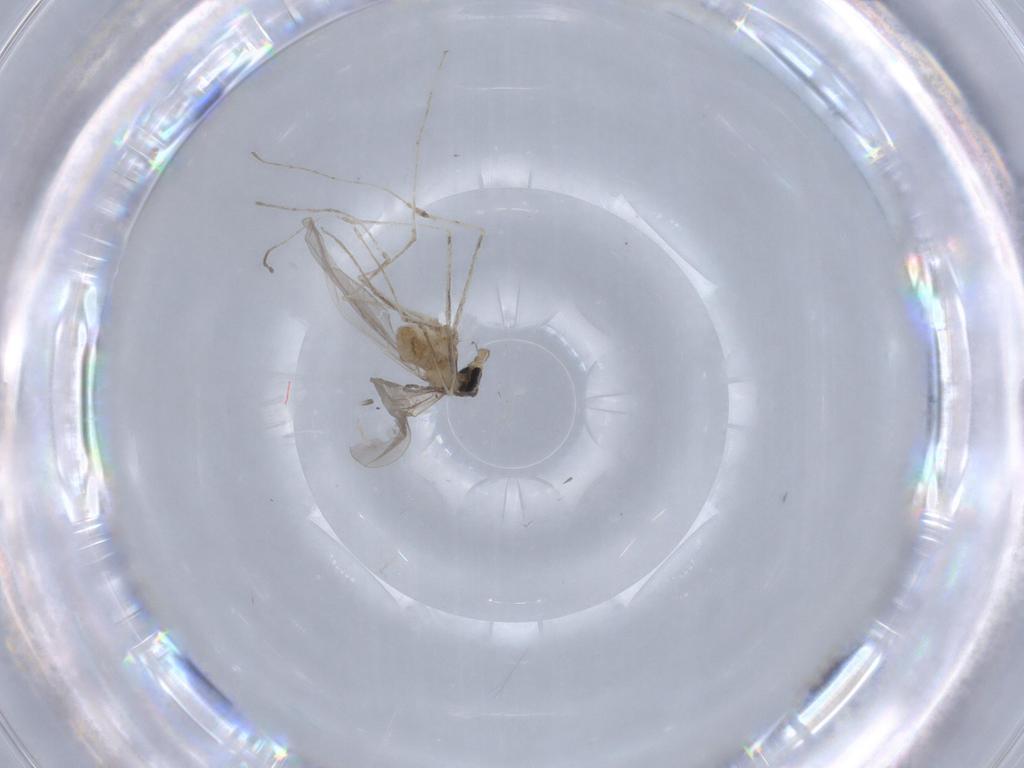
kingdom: Animalia
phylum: Arthropoda
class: Insecta
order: Diptera
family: Cecidomyiidae
